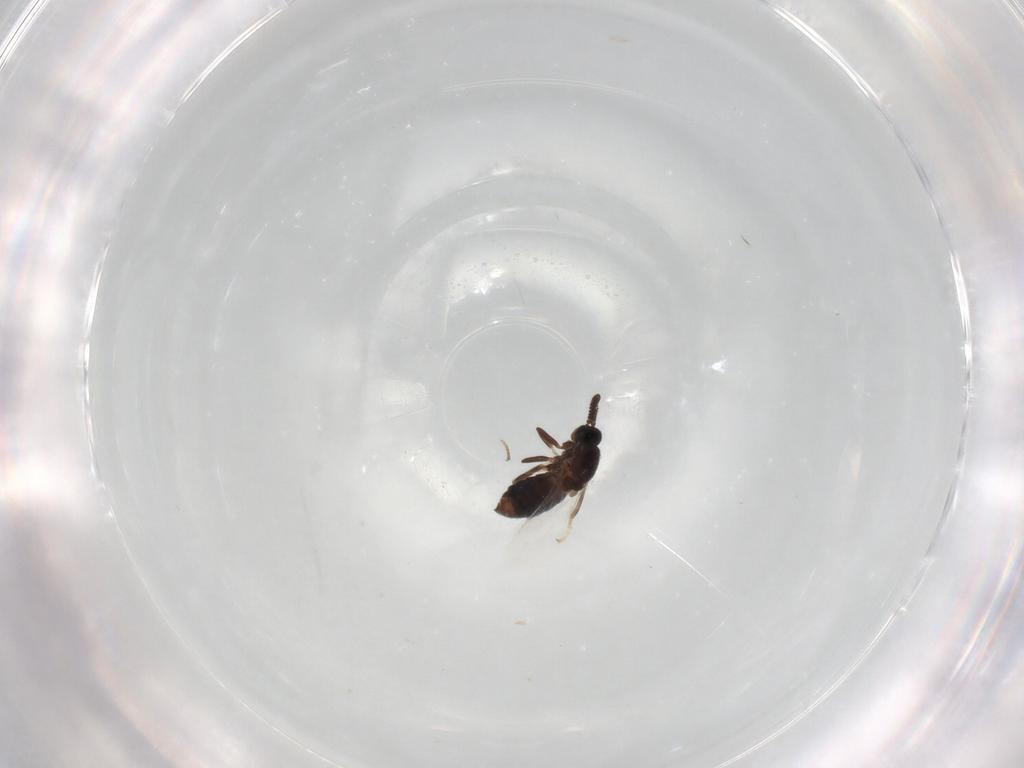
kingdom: Animalia
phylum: Arthropoda
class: Insecta
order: Diptera
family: Scatopsidae
